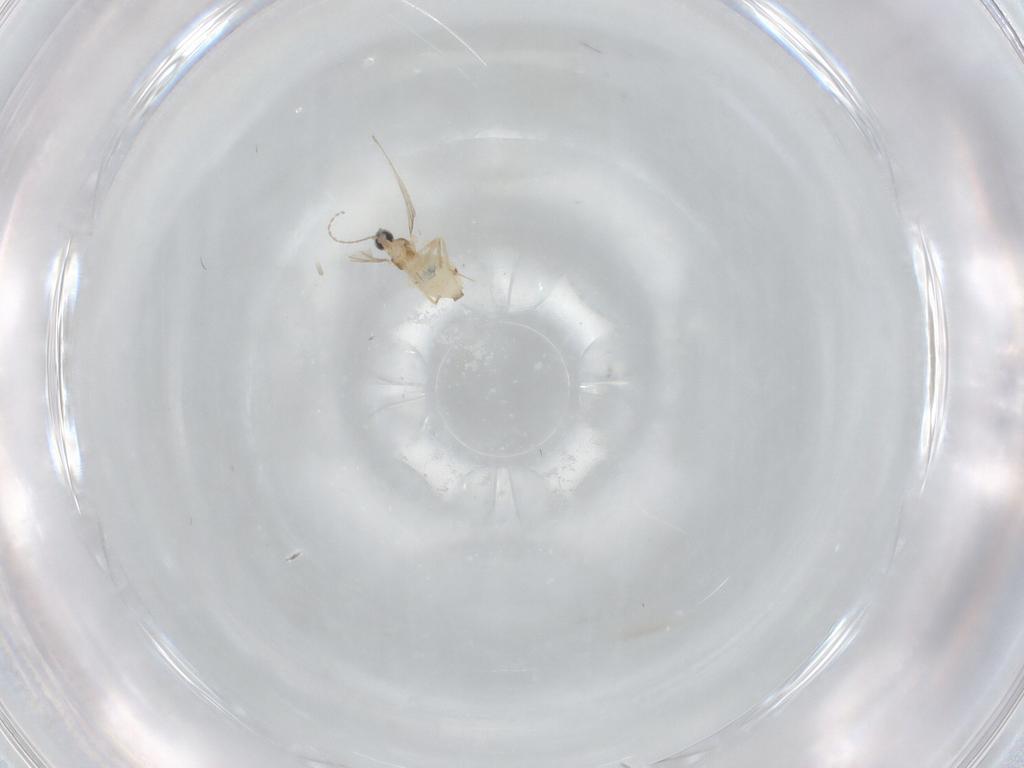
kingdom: Animalia
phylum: Arthropoda
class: Insecta
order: Diptera
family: Cecidomyiidae
